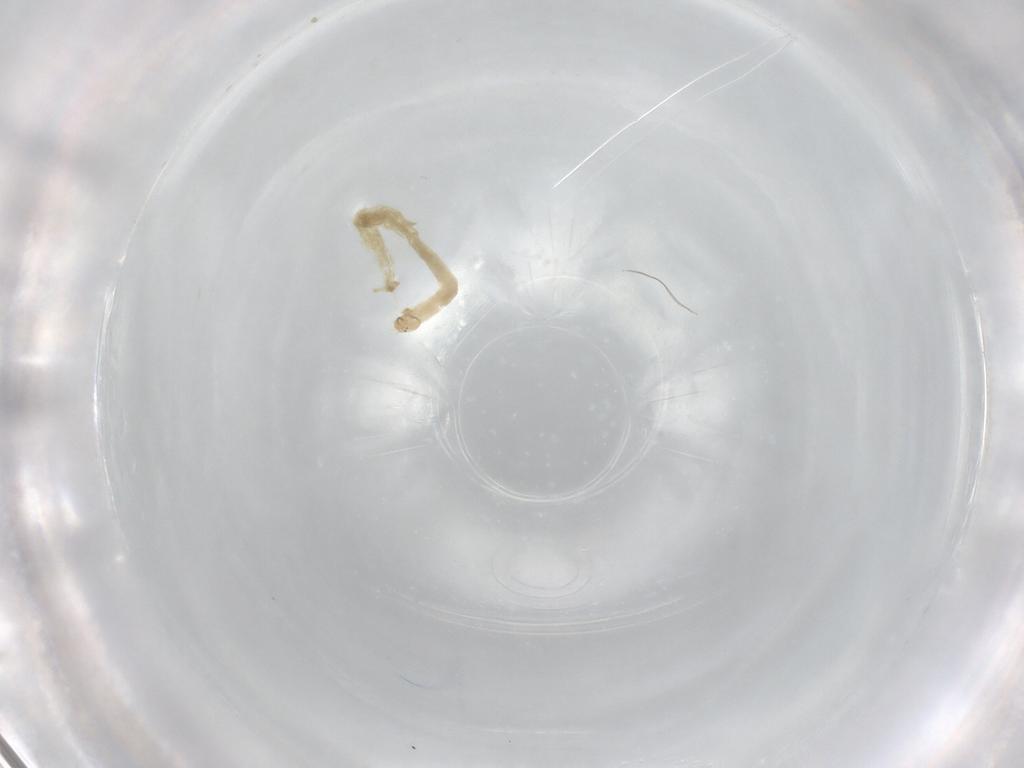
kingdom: Animalia
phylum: Arthropoda
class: Insecta
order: Diptera
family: Chironomidae
